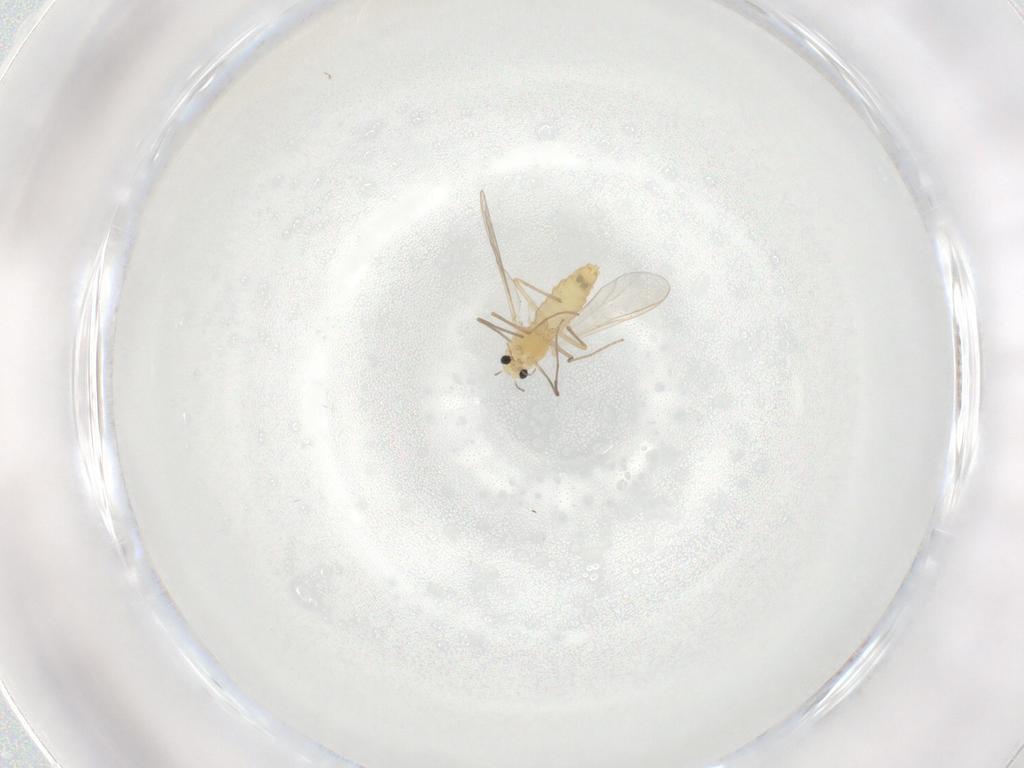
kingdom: Animalia
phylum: Arthropoda
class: Insecta
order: Diptera
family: Chironomidae
